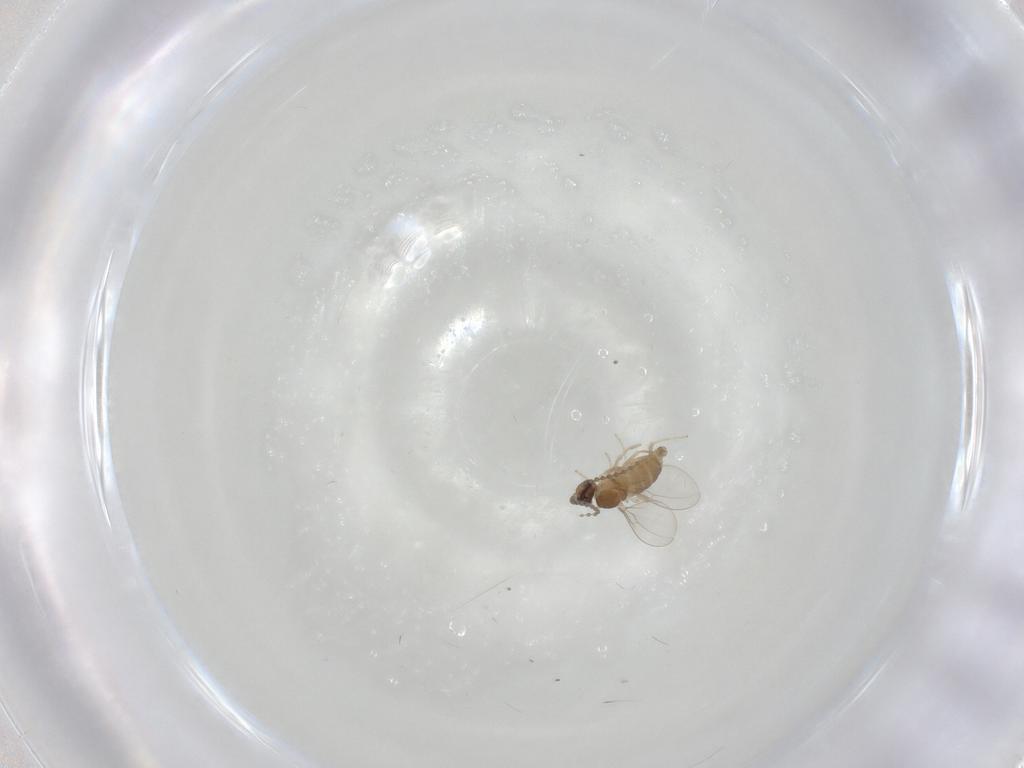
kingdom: Animalia
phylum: Arthropoda
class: Insecta
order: Diptera
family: Cecidomyiidae
